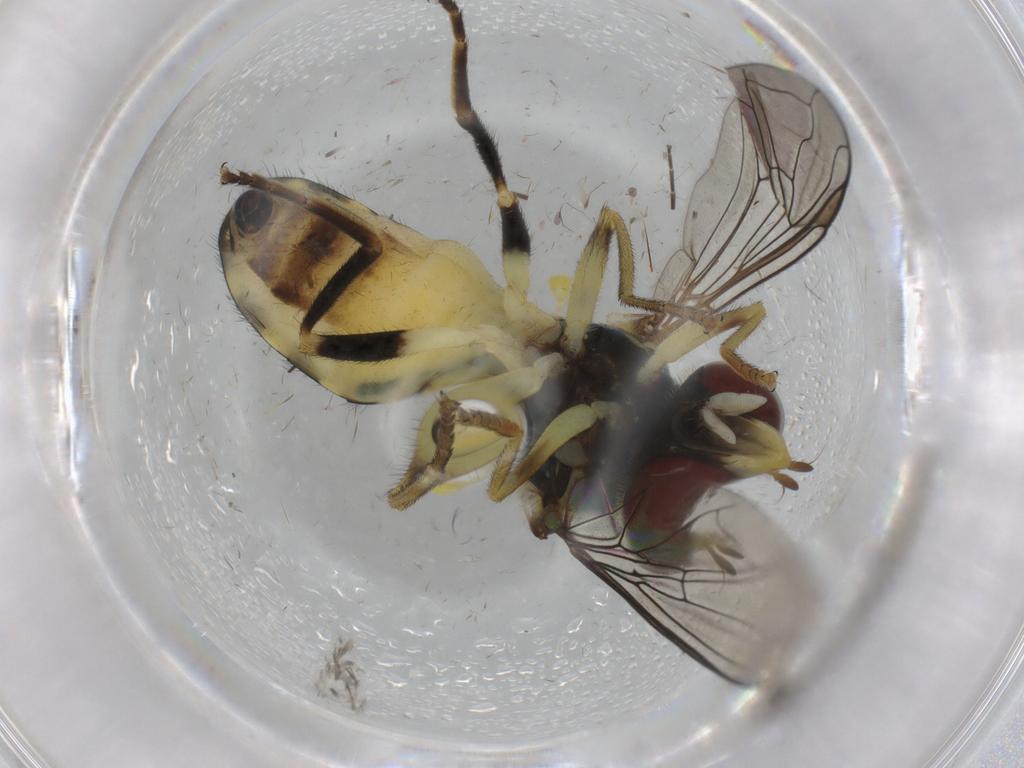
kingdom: Animalia
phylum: Arthropoda
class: Insecta
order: Diptera
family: Syrphidae
